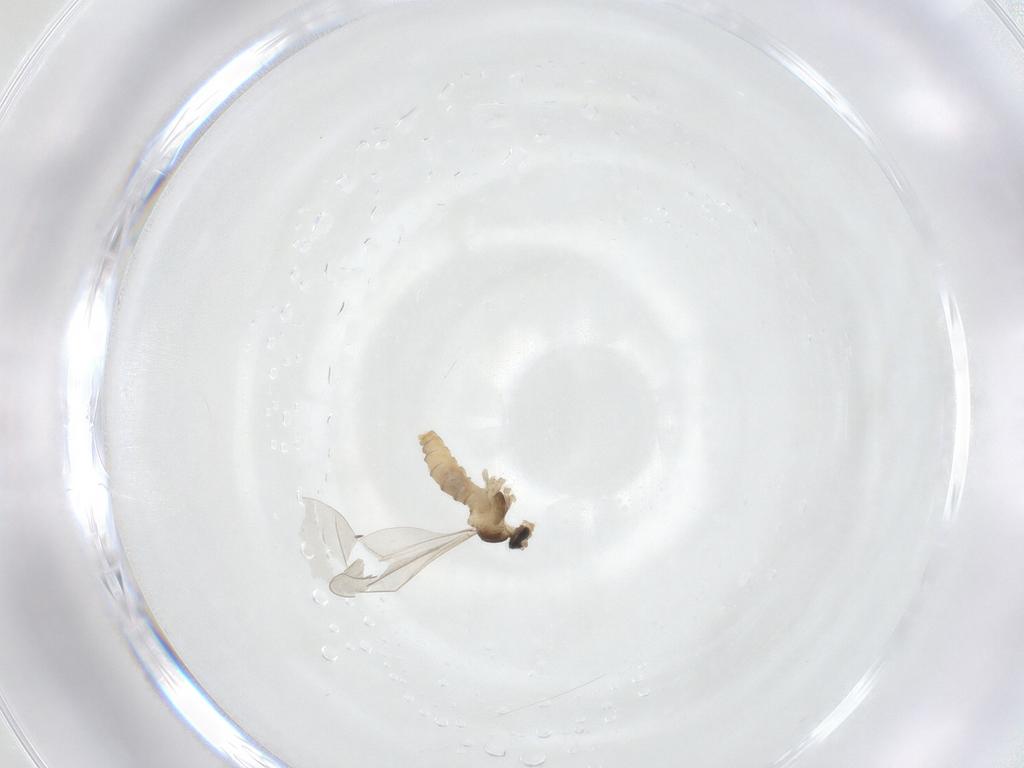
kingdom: Animalia
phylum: Arthropoda
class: Insecta
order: Diptera
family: Cecidomyiidae
